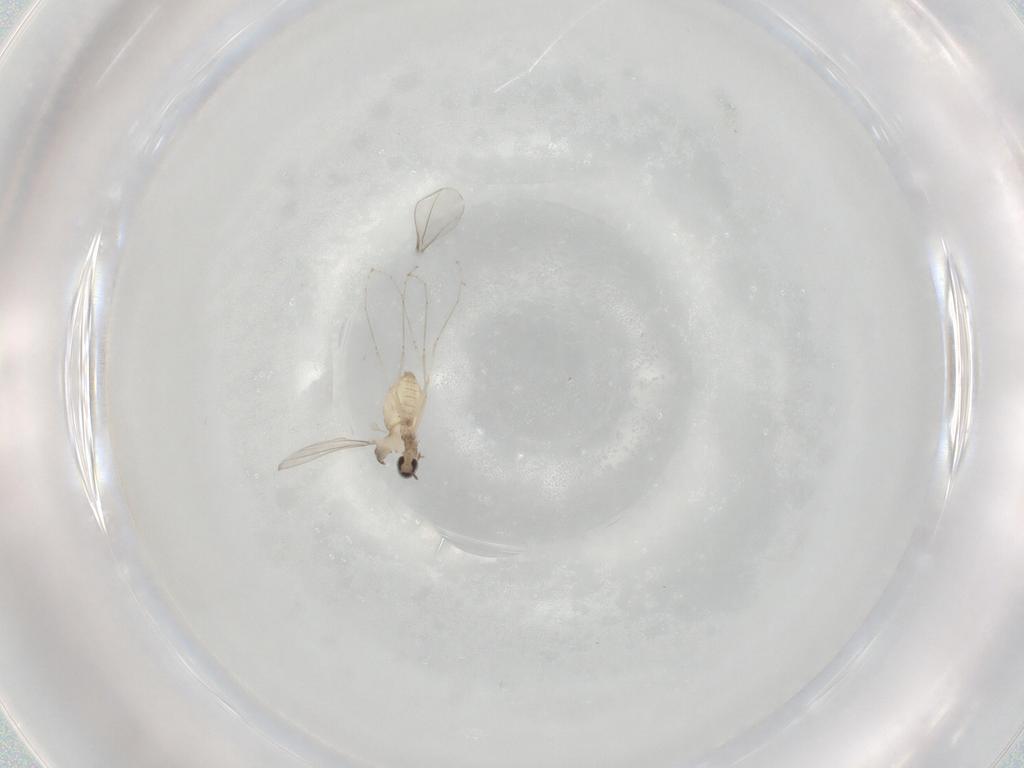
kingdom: Animalia
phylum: Arthropoda
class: Insecta
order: Diptera
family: Cecidomyiidae
